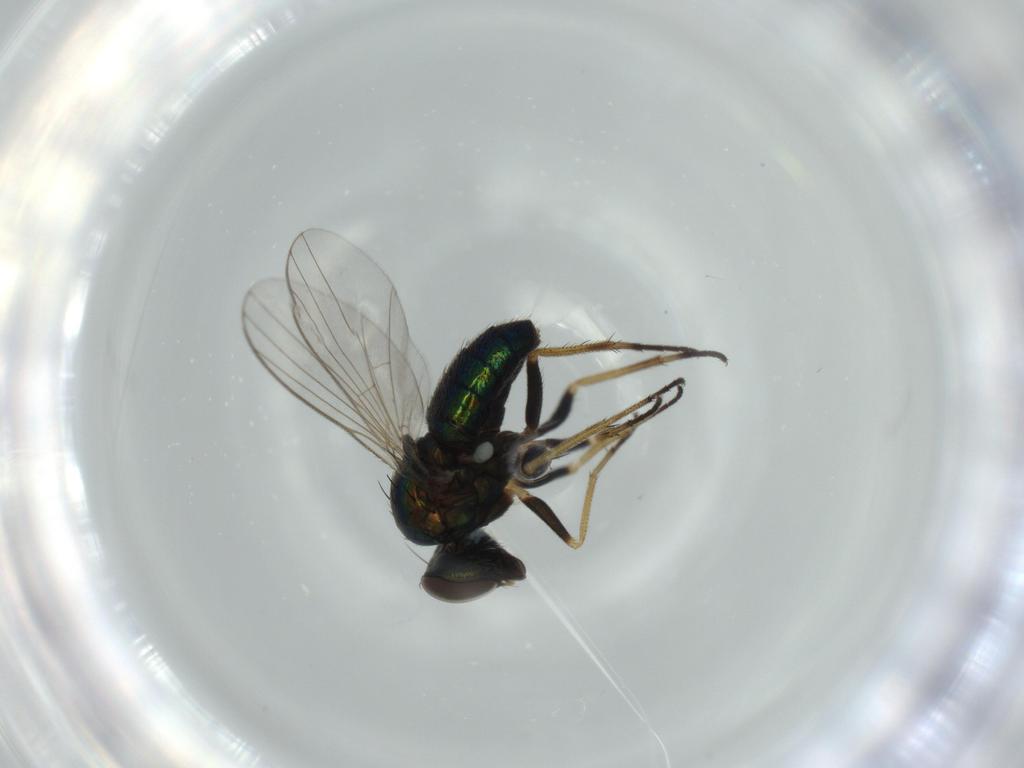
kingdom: Animalia
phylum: Arthropoda
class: Insecta
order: Diptera
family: Dolichopodidae
